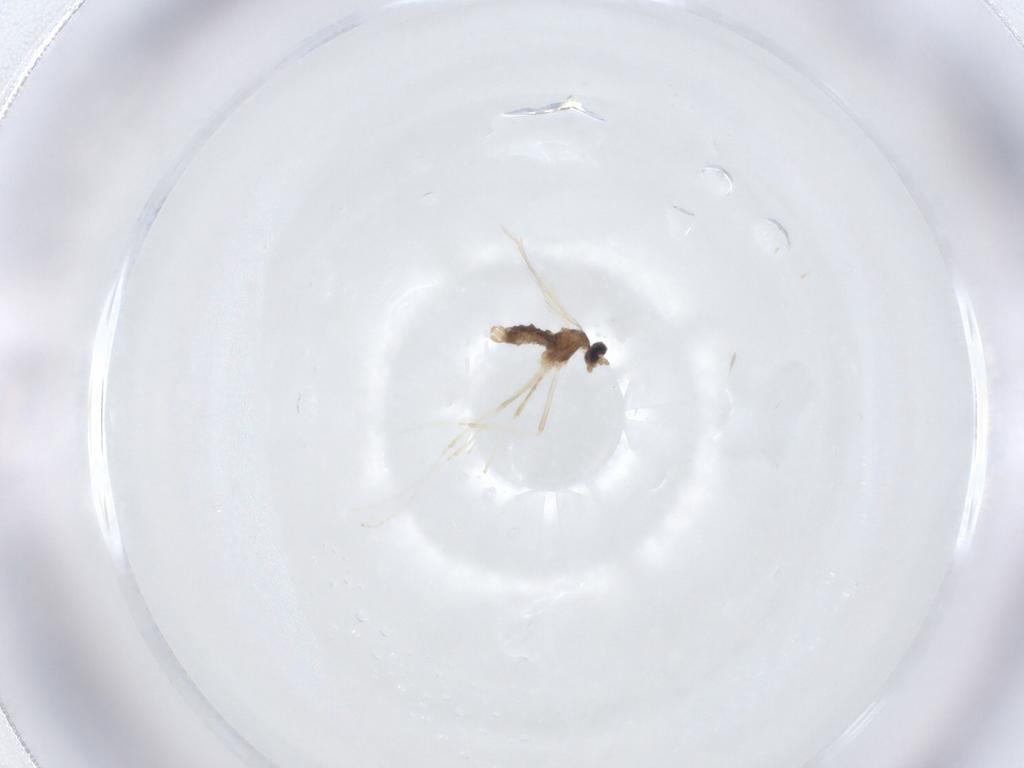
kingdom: Animalia
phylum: Arthropoda
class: Insecta
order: Diptera
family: Cecidomyiidae
